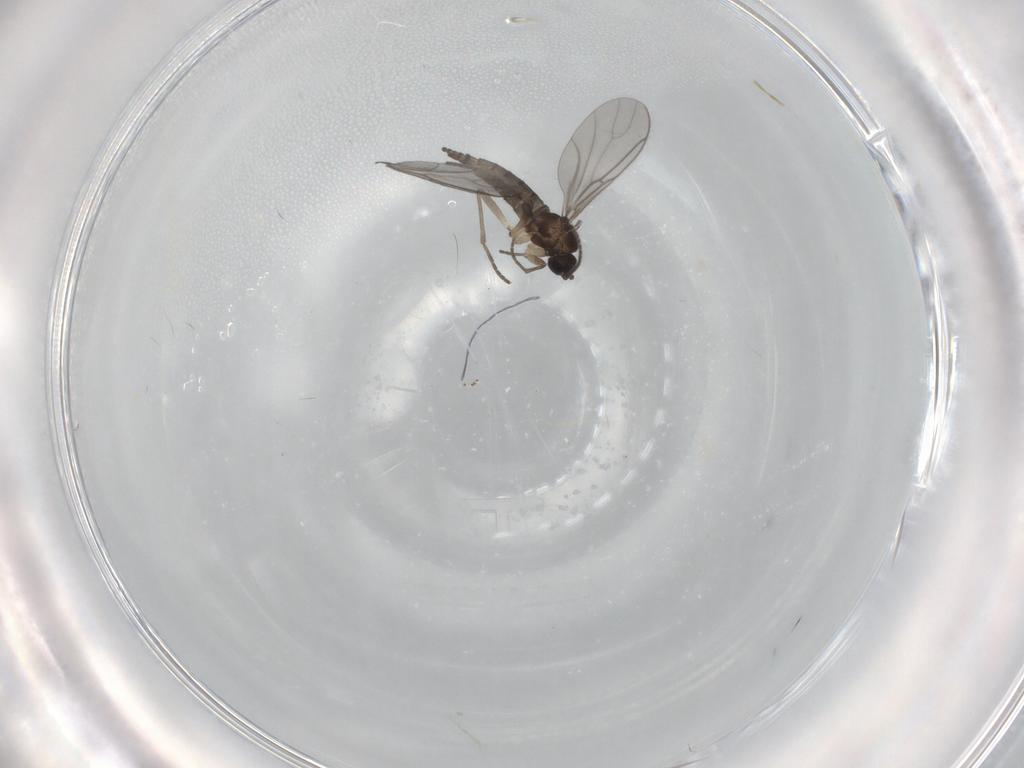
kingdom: Animalia
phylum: Arthropoda
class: Insecta
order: Diptera
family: Sciaridae
